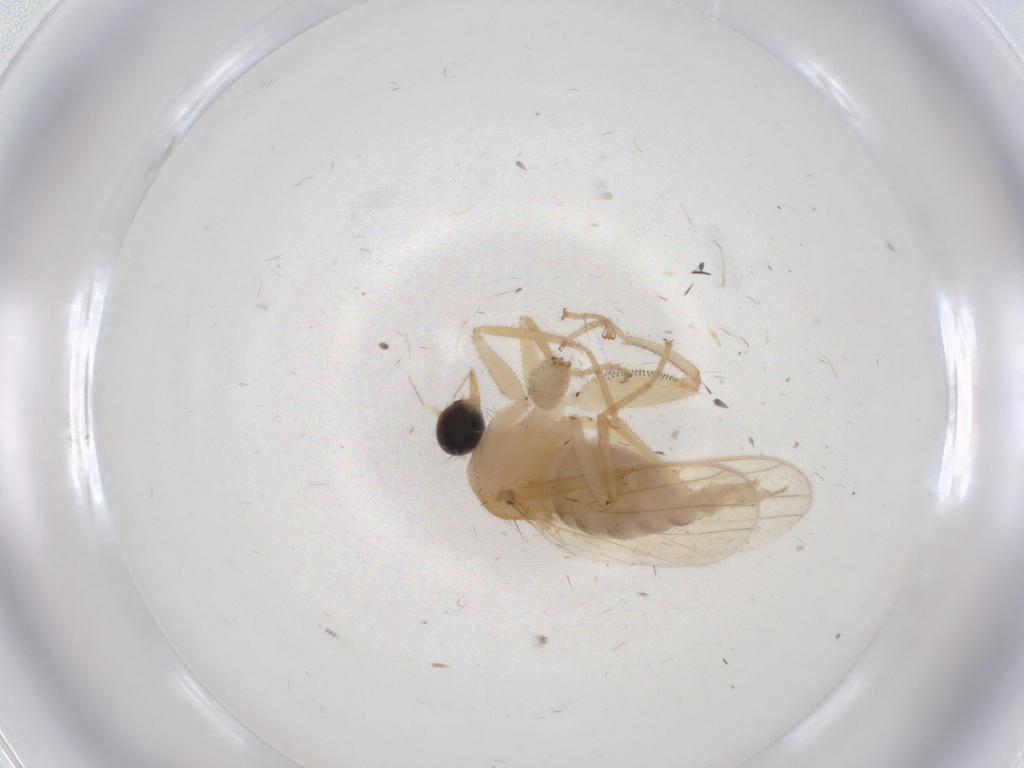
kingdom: Animalia
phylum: Arthropoda
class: Insecta
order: Diptera
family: Hybotidae
